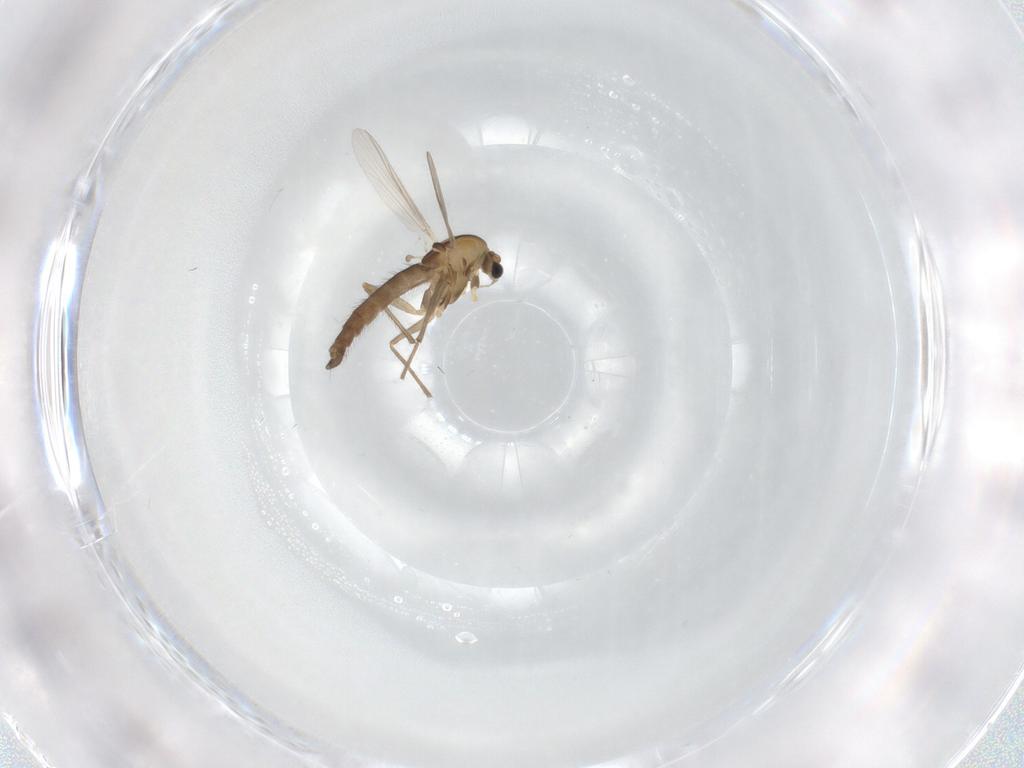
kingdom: Animalia
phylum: Arthropoda
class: Insecta
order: Diptera
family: Chironomidae
